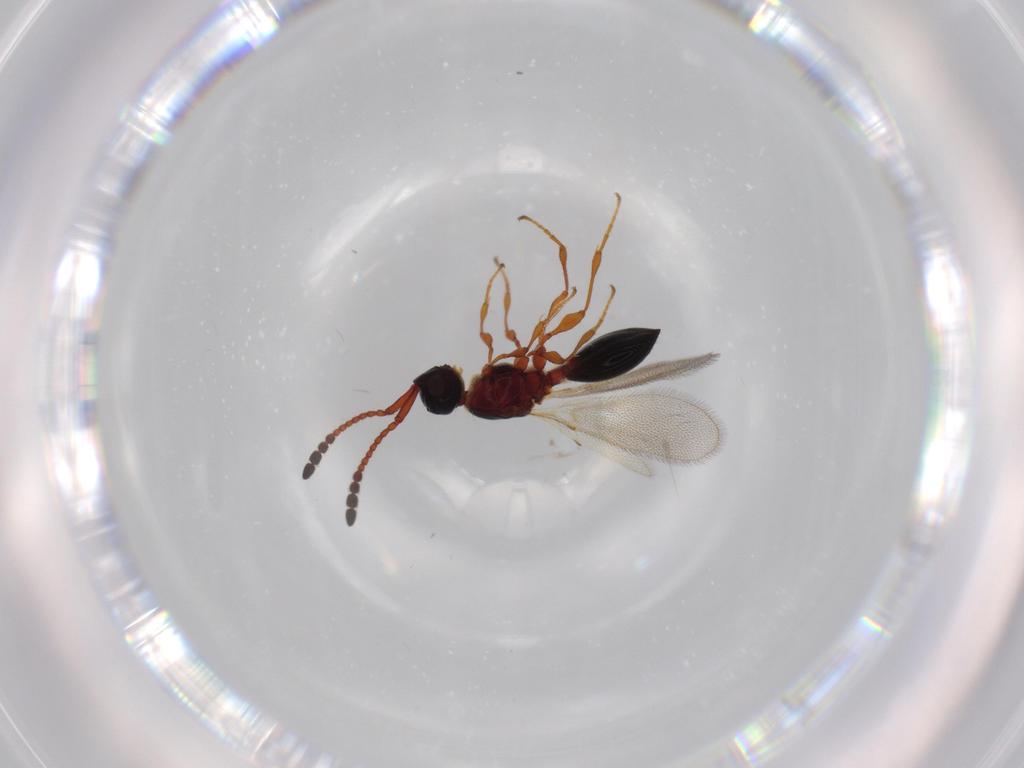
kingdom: Animalia
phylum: Arthropoda
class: Insecta
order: Hymenoptera
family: Diapriidae
